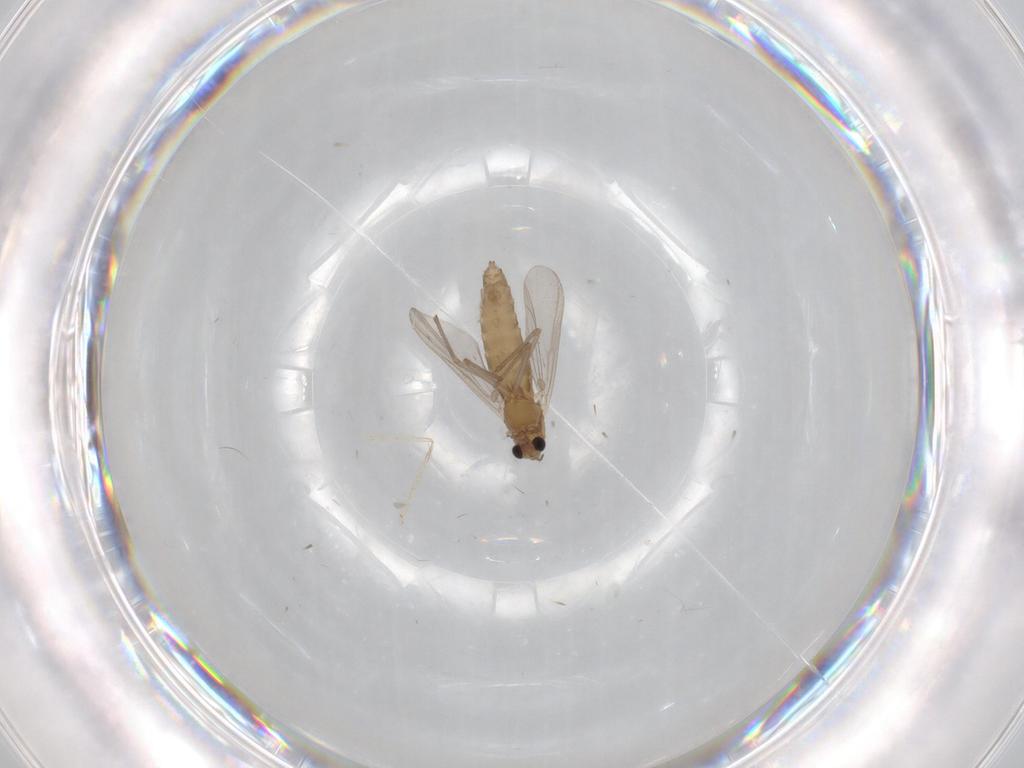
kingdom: Animalia
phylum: Arthropoda
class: Insecta
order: Diptera
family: Chironomidae
